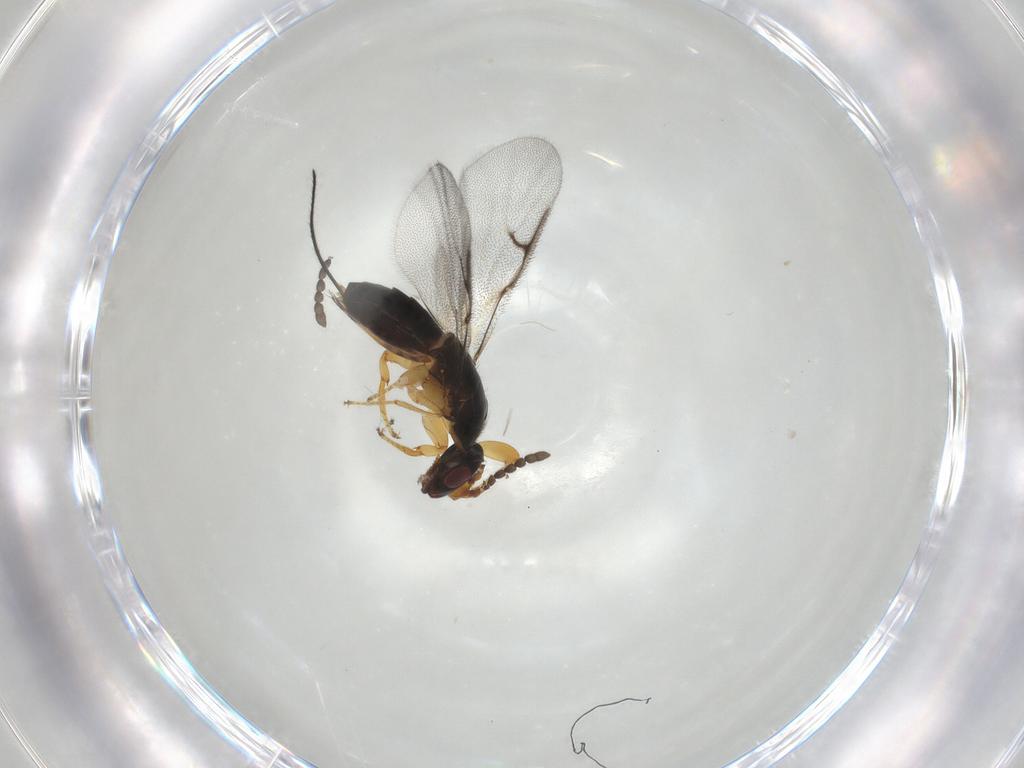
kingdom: Animalia
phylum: Arthropoda
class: Insecta
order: Hymenoptera
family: Agaonidae
